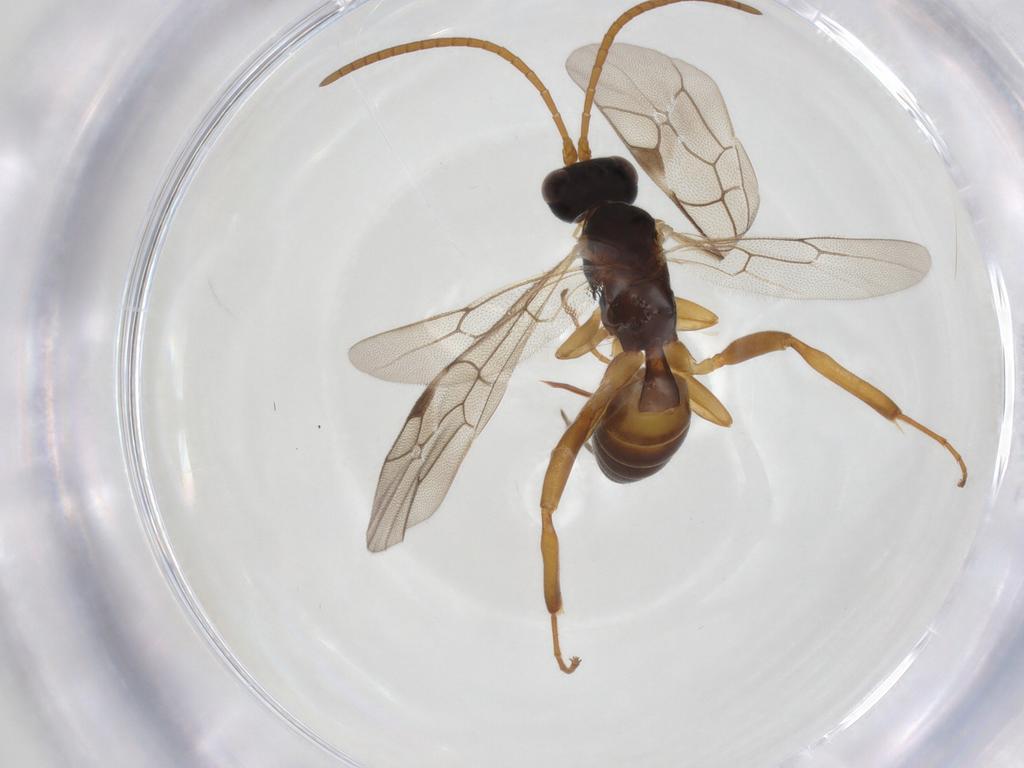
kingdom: Animalia
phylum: Arthropoda
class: Insecta
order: Hymenoptera
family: Ichneumonidae
